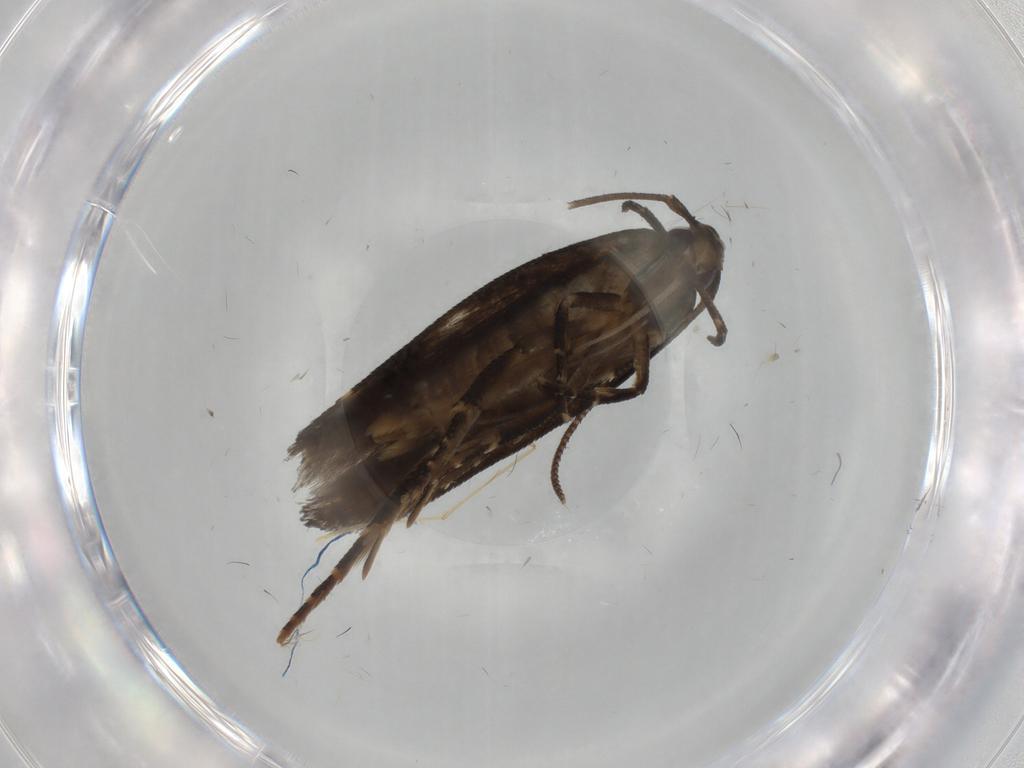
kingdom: Animalia
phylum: Arthropoda
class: Insecta
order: Lepidoptera
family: Cosmopterigidae
